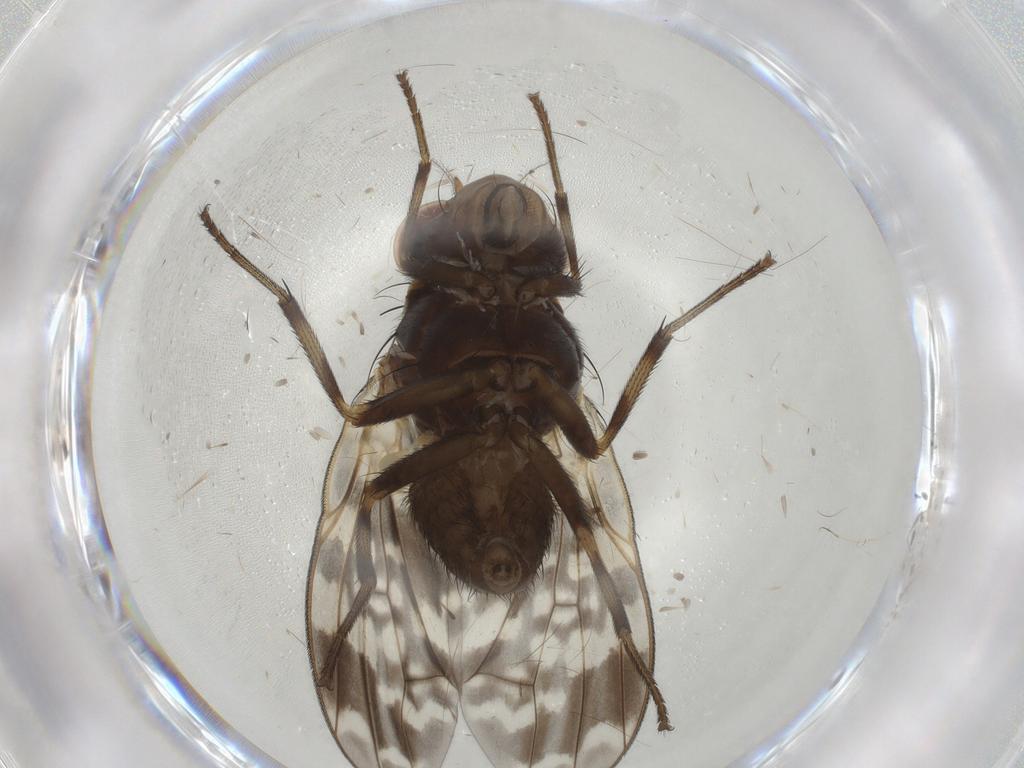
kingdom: Animalia
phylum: Arthropoda
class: Insecta
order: Diptera
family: Lauxaniidae
